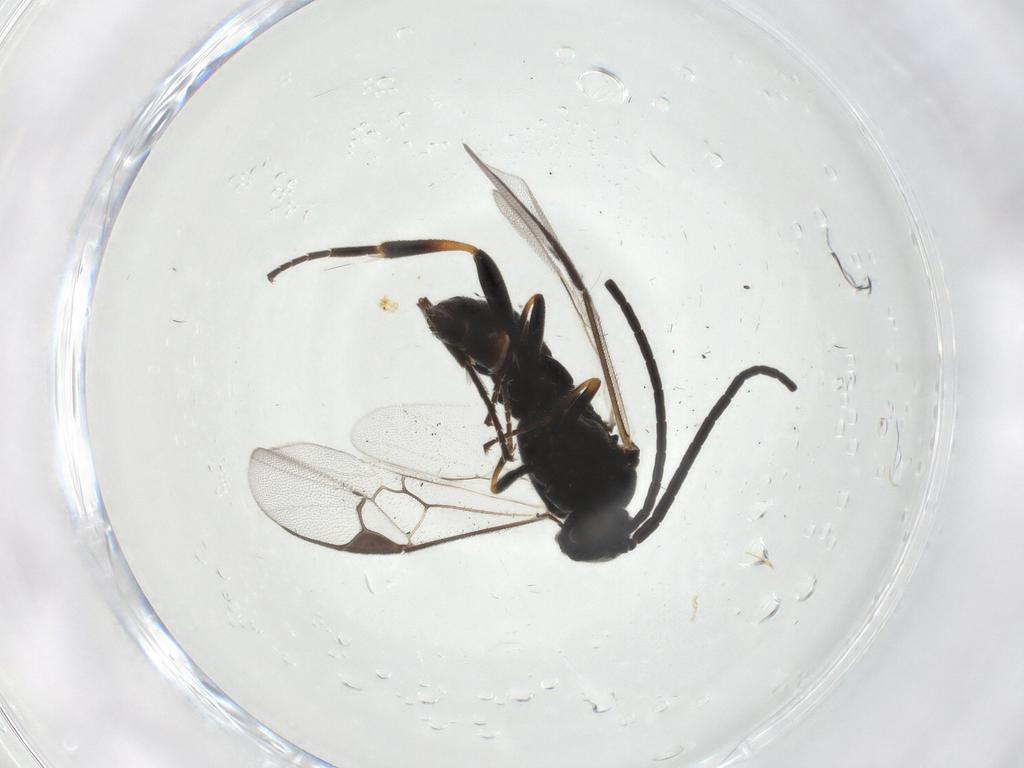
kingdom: Animalia
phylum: Arthropoda
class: Insecta
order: Hymenoptera
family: Braconidae
